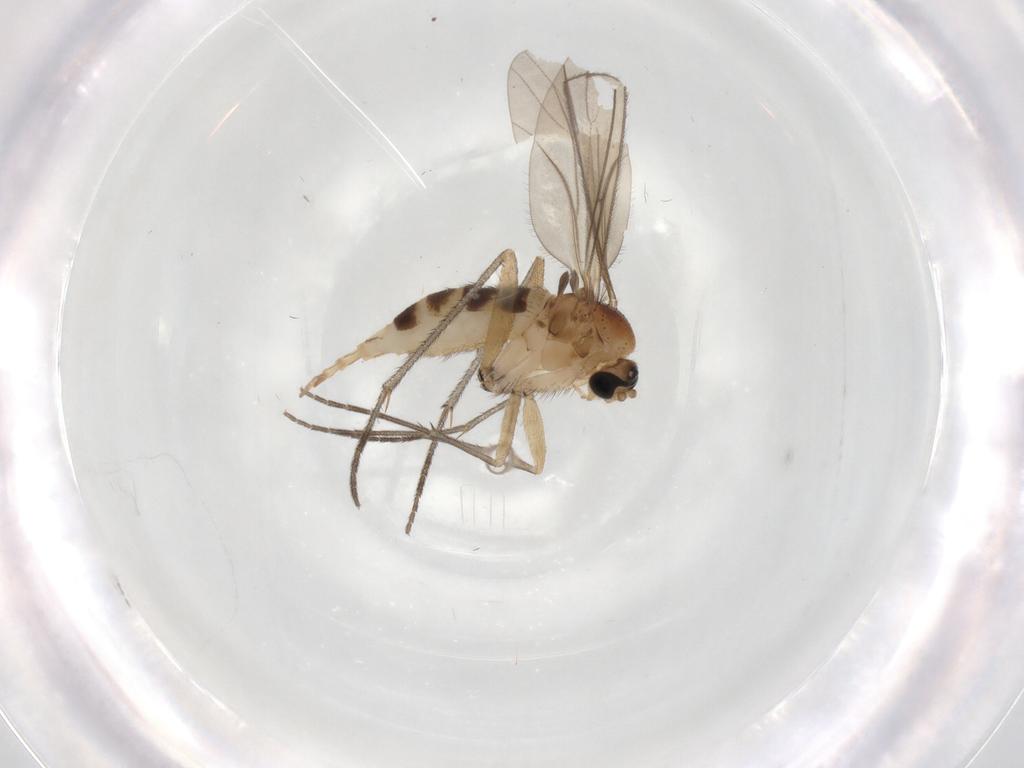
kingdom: Animalia
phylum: Arthropoda
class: Insecta
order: Diptera
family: Sciaridae
